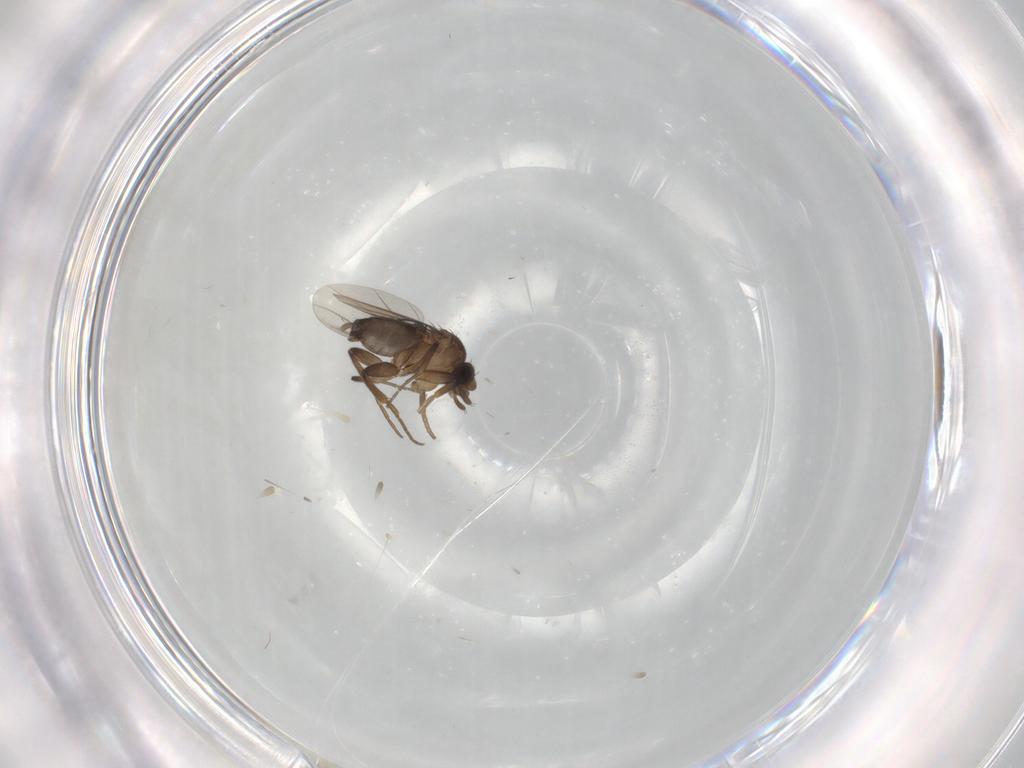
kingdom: Animalia
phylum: Arthropoda
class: Insecta
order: Diptera
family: Phoridae
